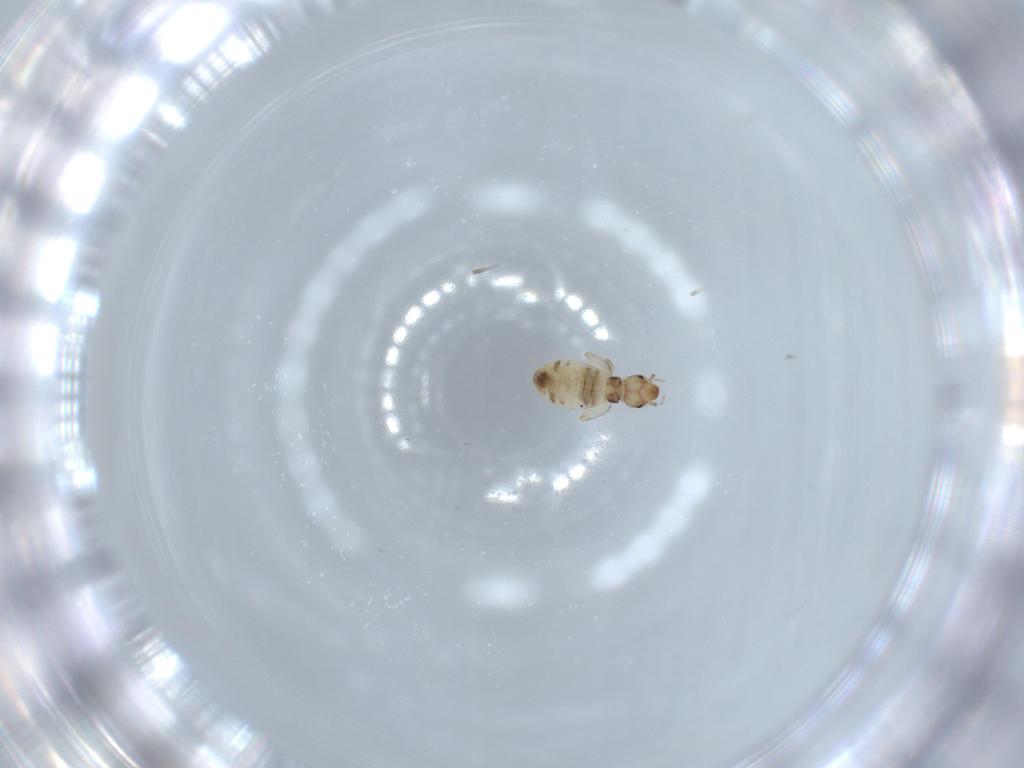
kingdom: Animalia
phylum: Arthropoda
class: Insecta
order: Psocodea
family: Liposcelididae
